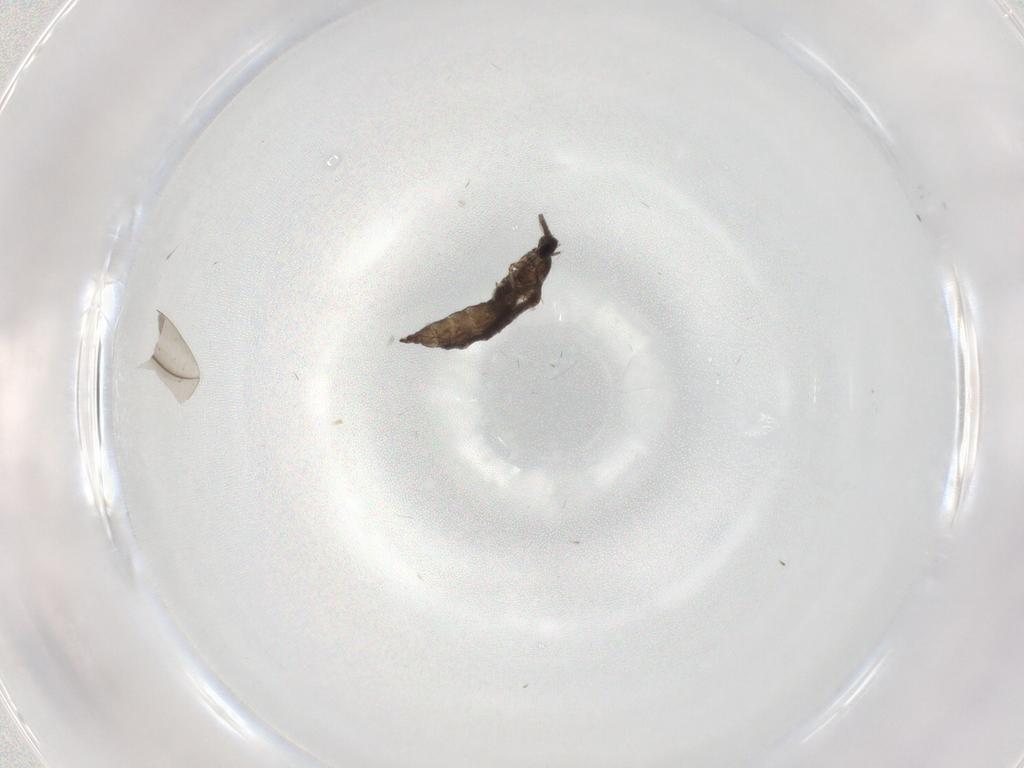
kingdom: Animalia
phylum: Arthropoda
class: Insecta
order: Diptera
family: Sciaridae
